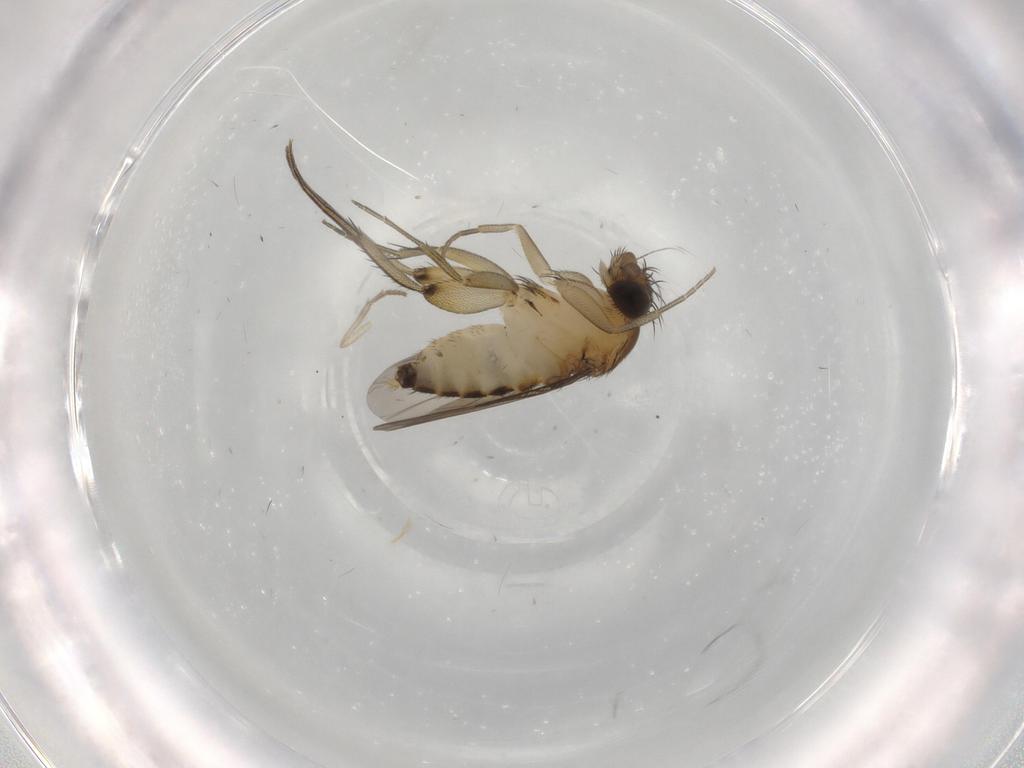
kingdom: Animalia
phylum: Arthropoda
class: Insecta
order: Diptera
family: Phoridae
